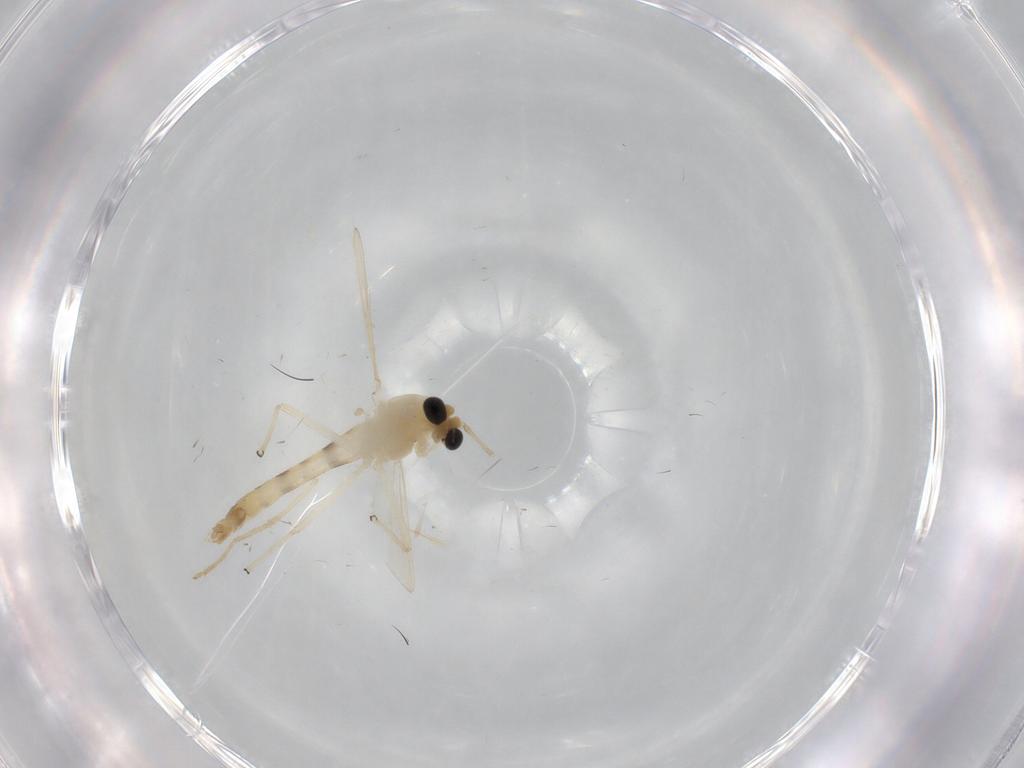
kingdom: Animalia
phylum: Arthropoda
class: Insecta
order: Diptera
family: Chironomidae
